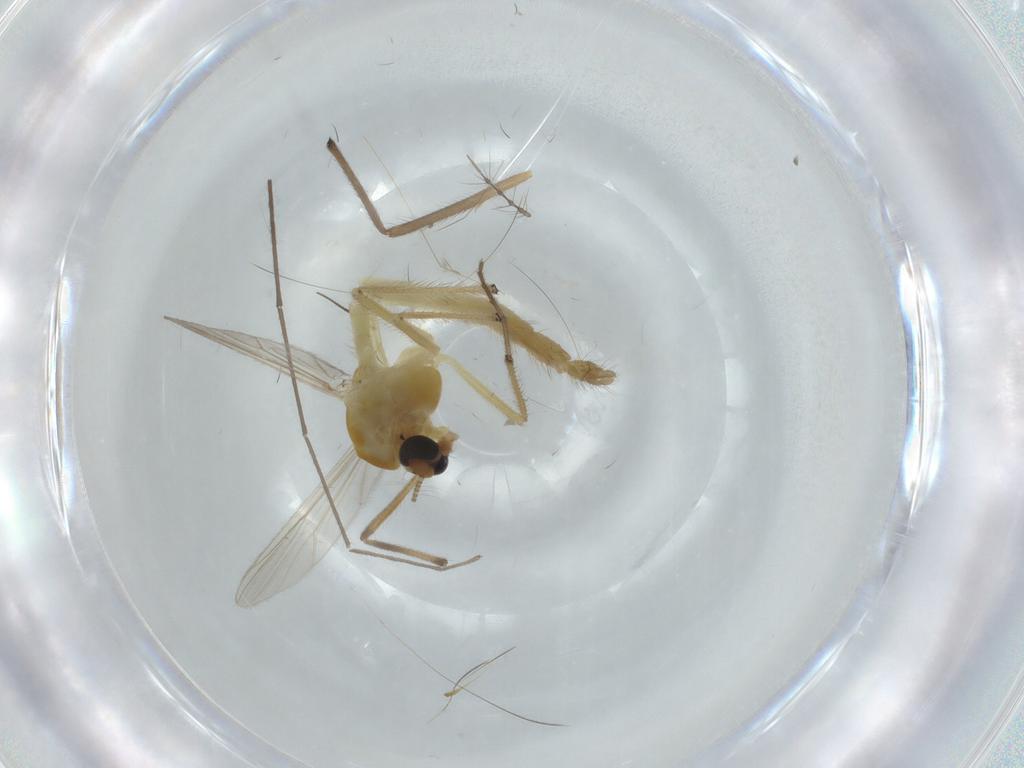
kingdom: Animalia
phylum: Arthropoda
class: Insecta
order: Diptera
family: Chironomidae
